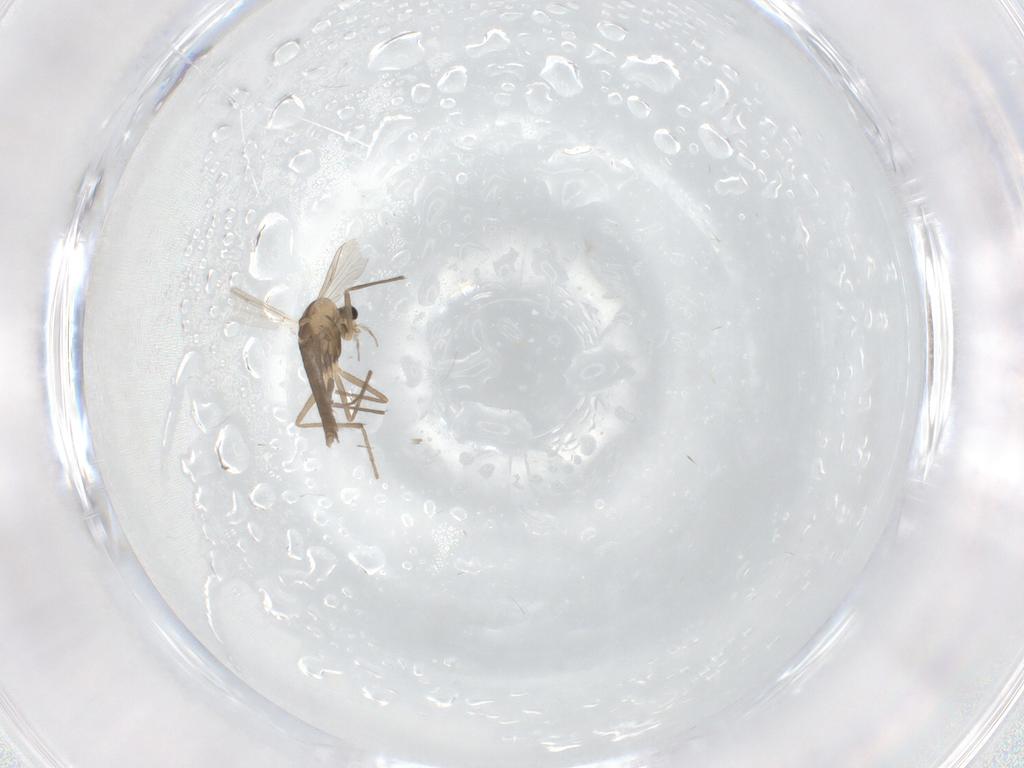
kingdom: Animalia
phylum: Arthropoda
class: Insecta
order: Diptera
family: Chironomidae
